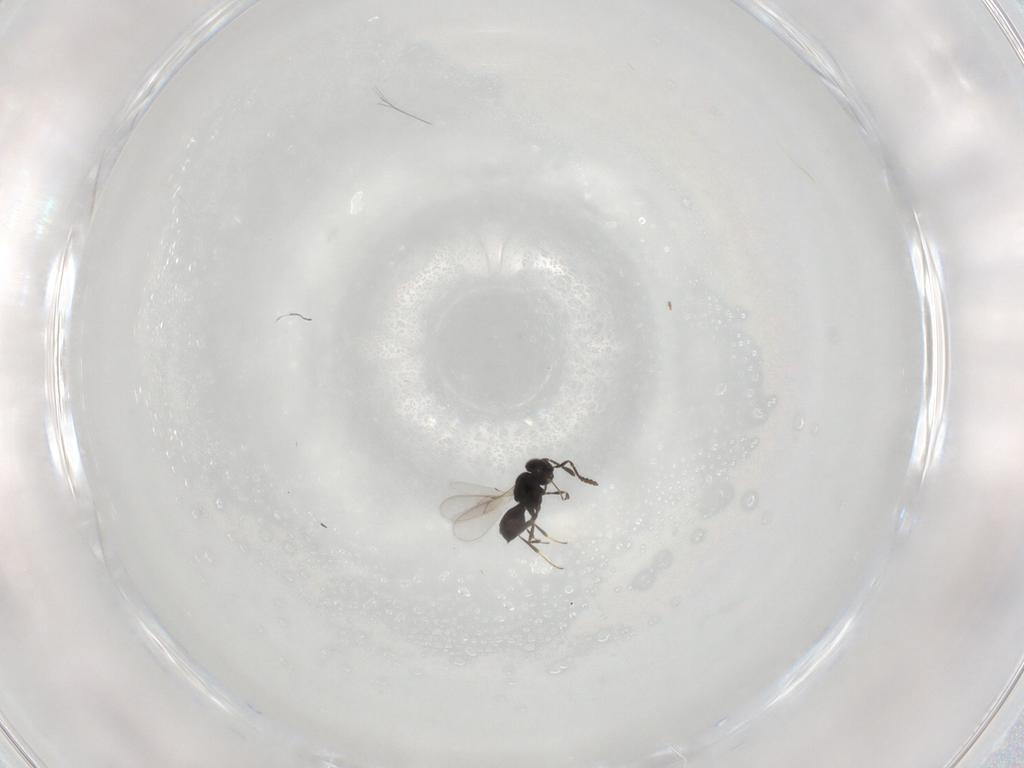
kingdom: Animalia
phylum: Arthropoda
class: Insecta
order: Hymenoptera
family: Scelionidae
